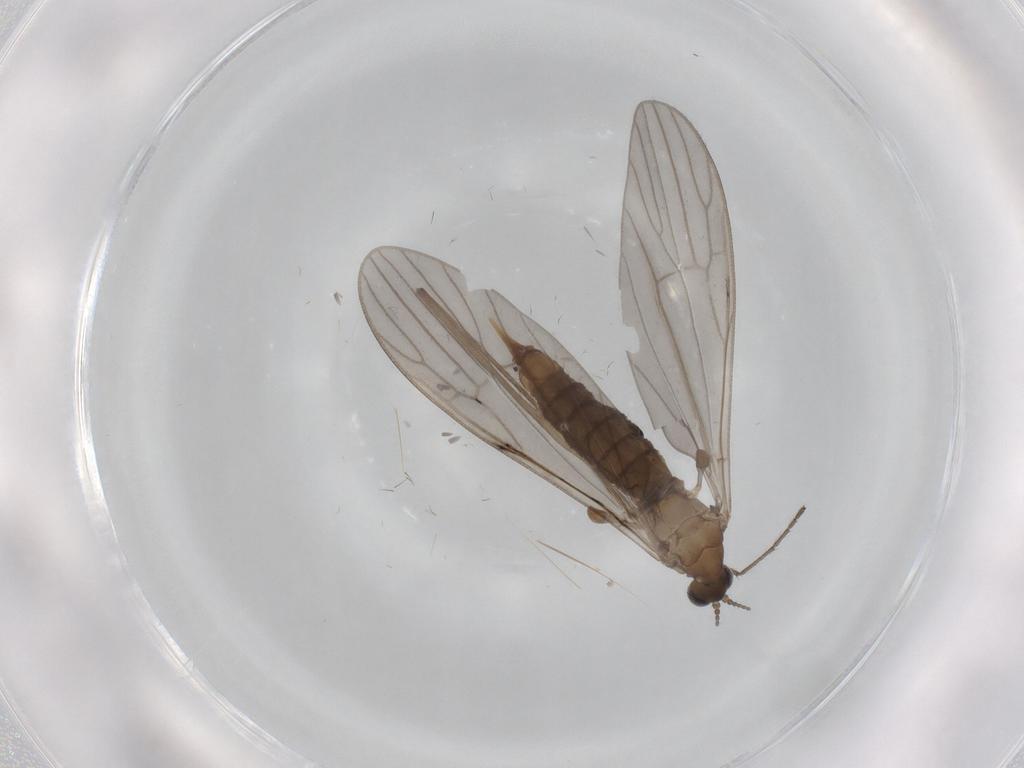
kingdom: Animalia
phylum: Arthropoda
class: Insecta
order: Diptera
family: Limoniidae
